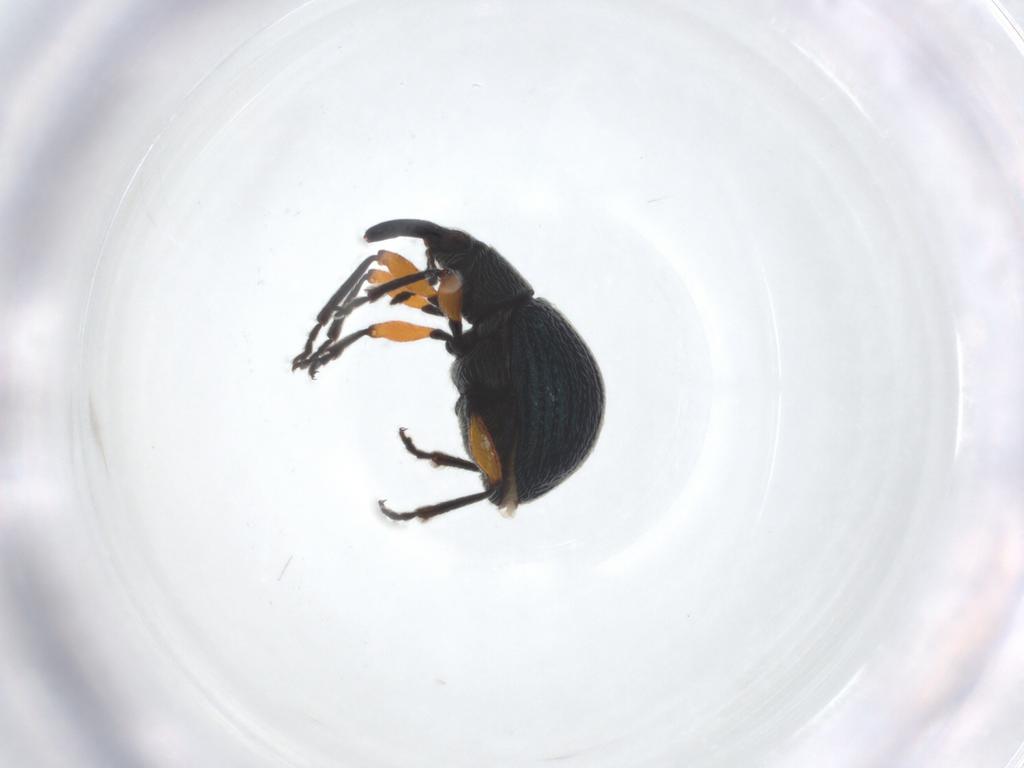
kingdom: Animalia
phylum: Arthropoda
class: Insecta
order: Coleoptera
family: Apionidae
